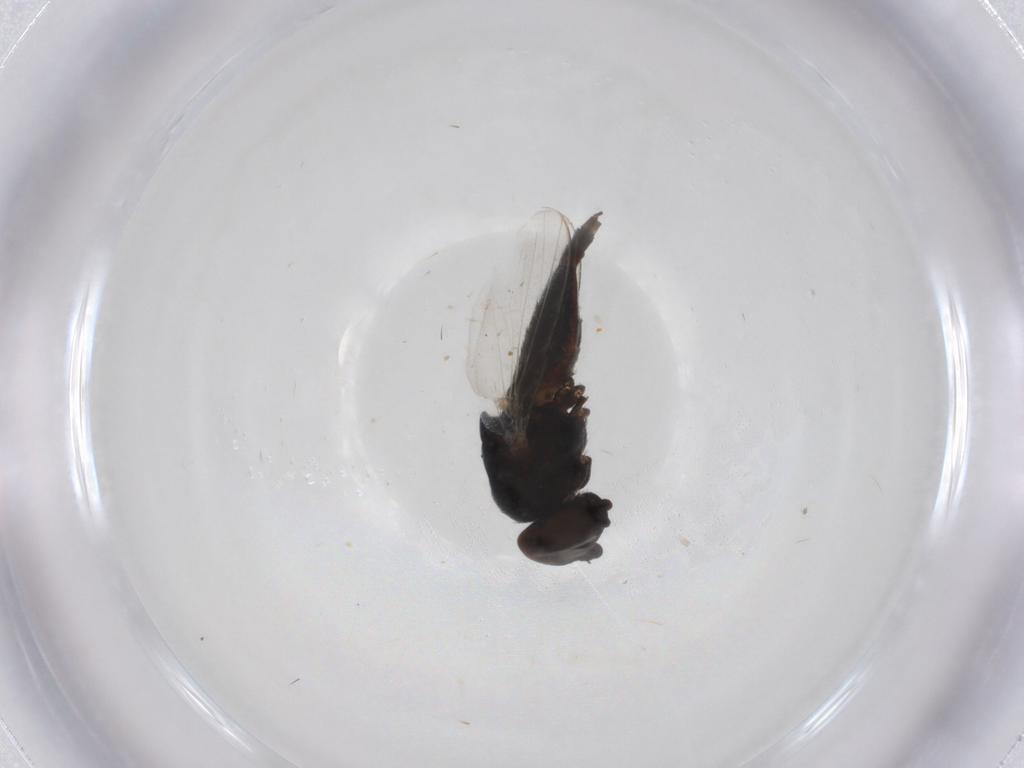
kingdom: Animalia
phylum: Arthropoda
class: Insecta
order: Diptera
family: Milichiidae
